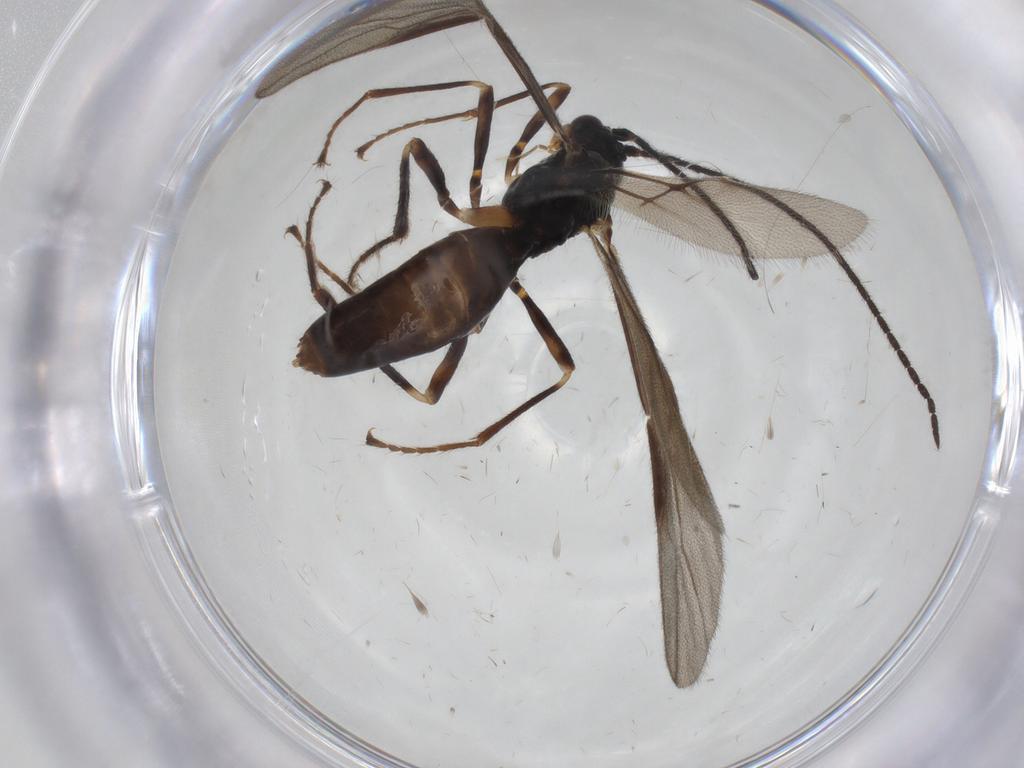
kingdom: Animalia
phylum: Arthropoda
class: Insecta
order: Hymenoptera
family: Braconidae
